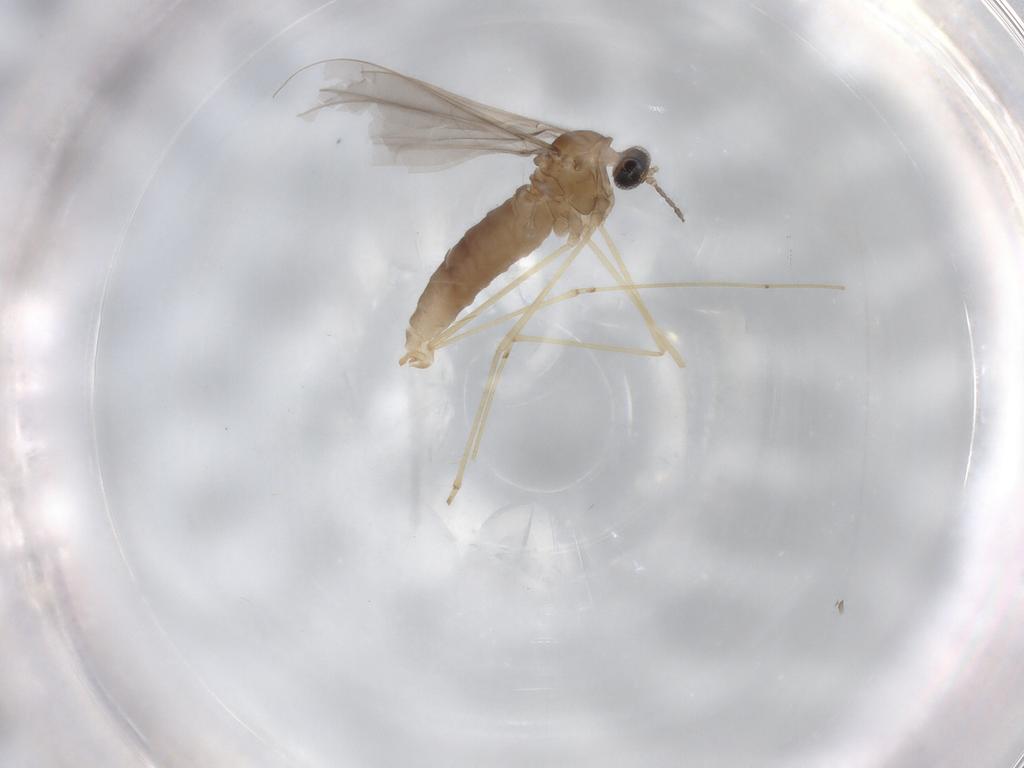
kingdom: Animalia
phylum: Arthropoda
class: Insecta
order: Diptera
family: Cecidomyiidae
